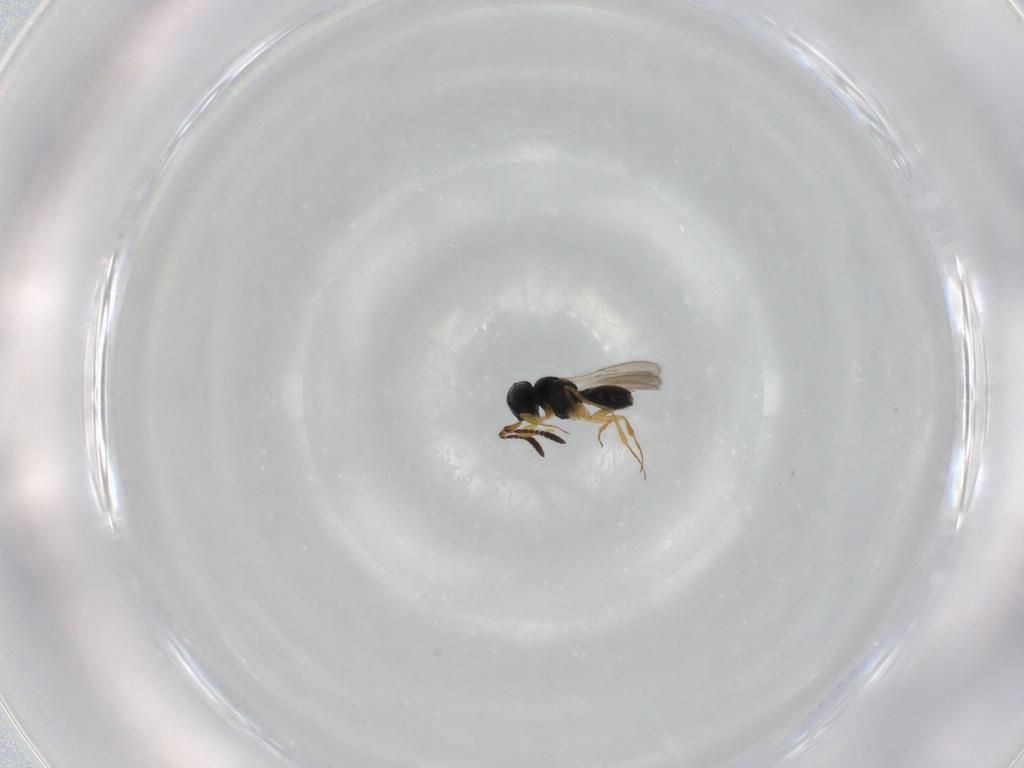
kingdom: Animalia
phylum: Arthropoda
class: Insecta
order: Hymenoptera
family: Scelionidae
